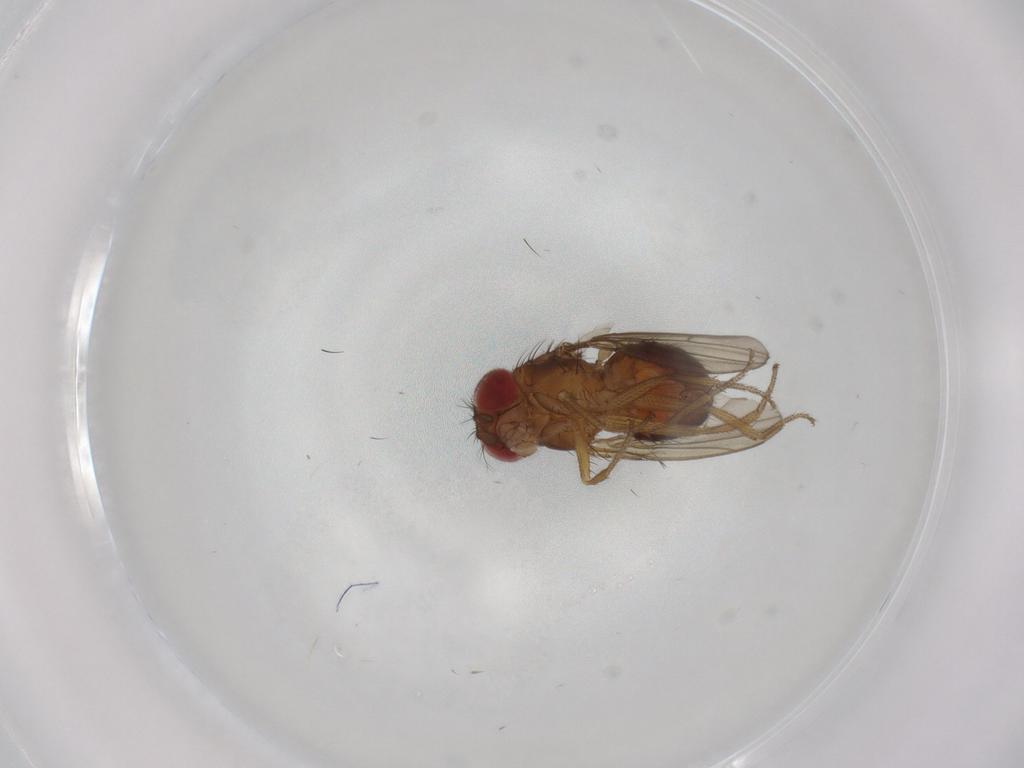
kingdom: Animalia
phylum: Arthropoda
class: Insecta
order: Diptera
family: Drosophilidae
